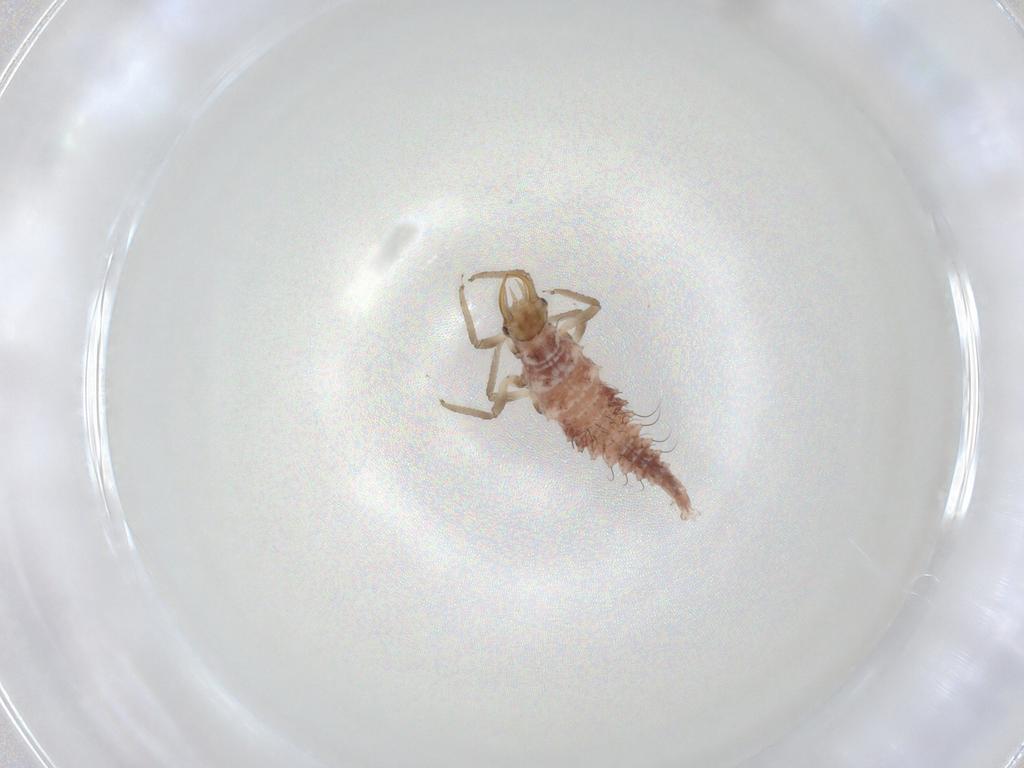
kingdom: Animalia
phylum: Arthropoda
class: Insecta
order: Neuroptera
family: Chrysopidae
